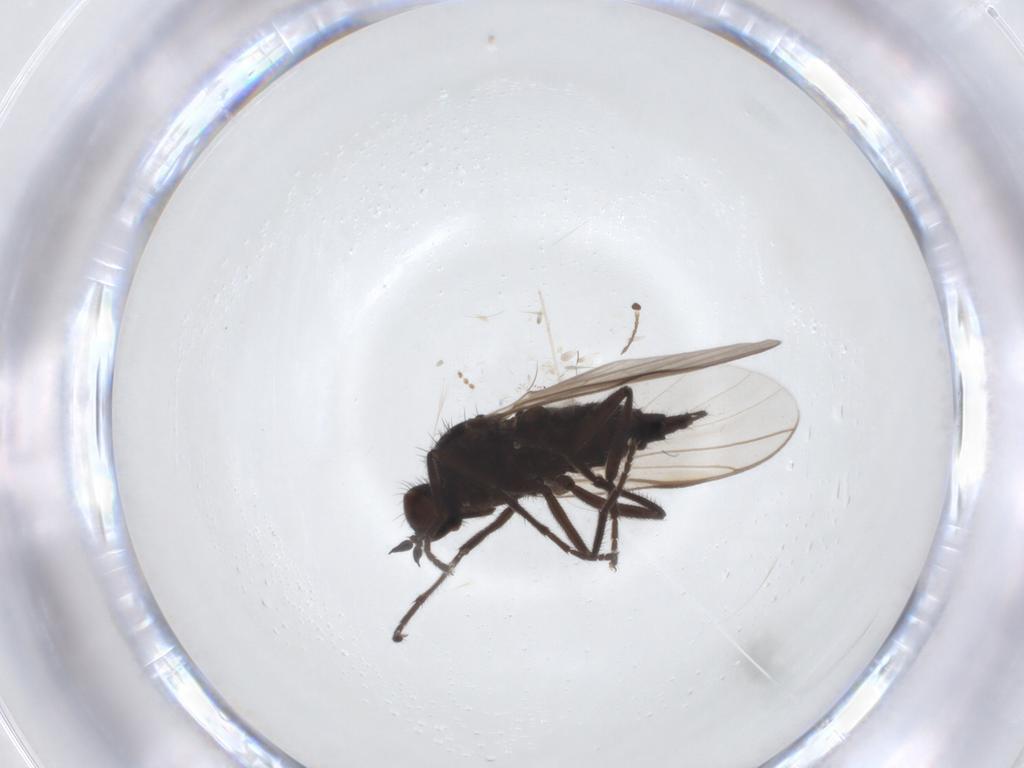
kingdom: Animalia
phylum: Arthropoda
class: Insecta
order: Diptera
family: Empididae
